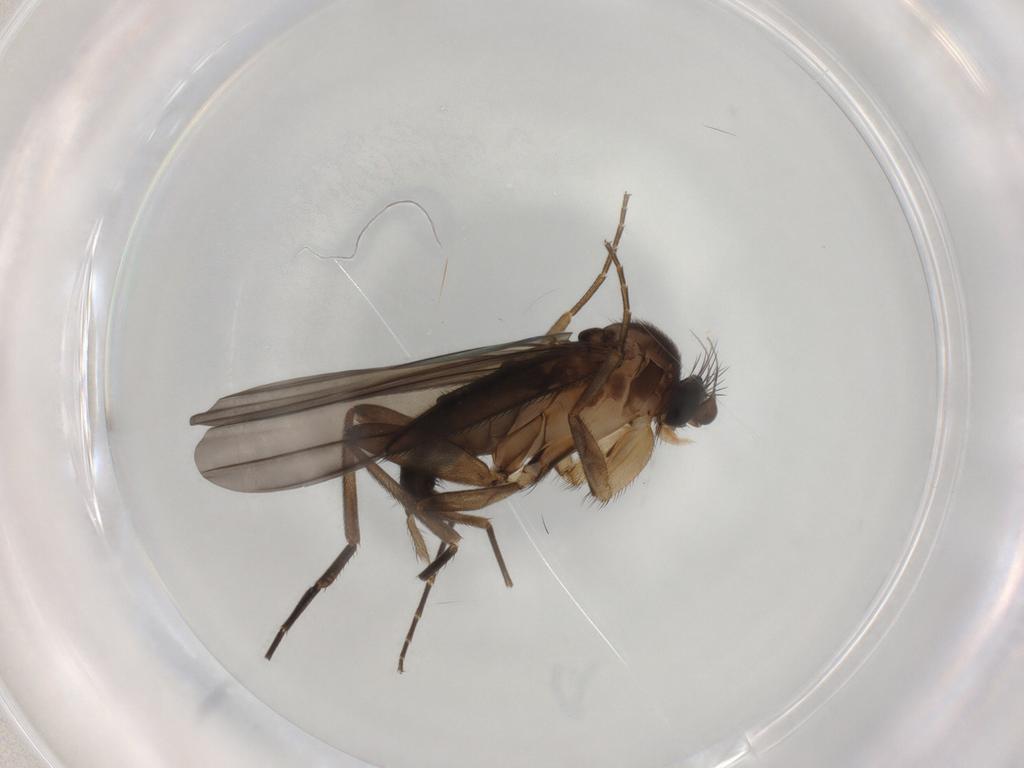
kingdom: Animalia
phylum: Arthropoda
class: Insecta
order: Diptera
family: Phoridae
